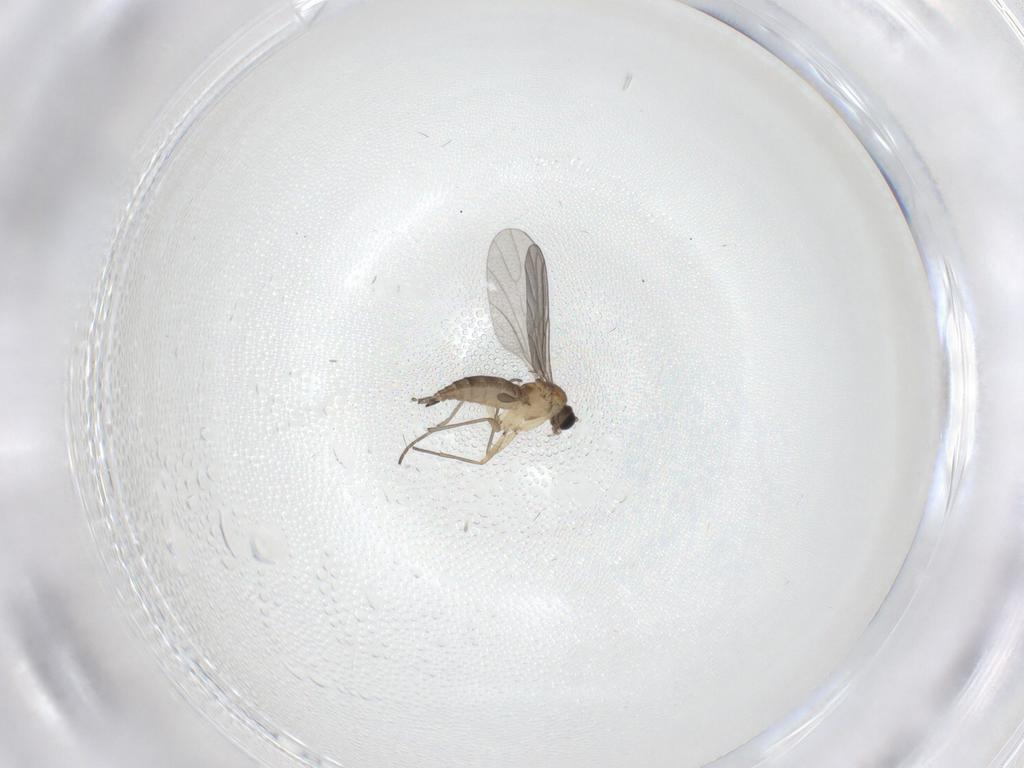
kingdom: Animalia
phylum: Arthropoda
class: Insecta
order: Diptera
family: Sciaridae
